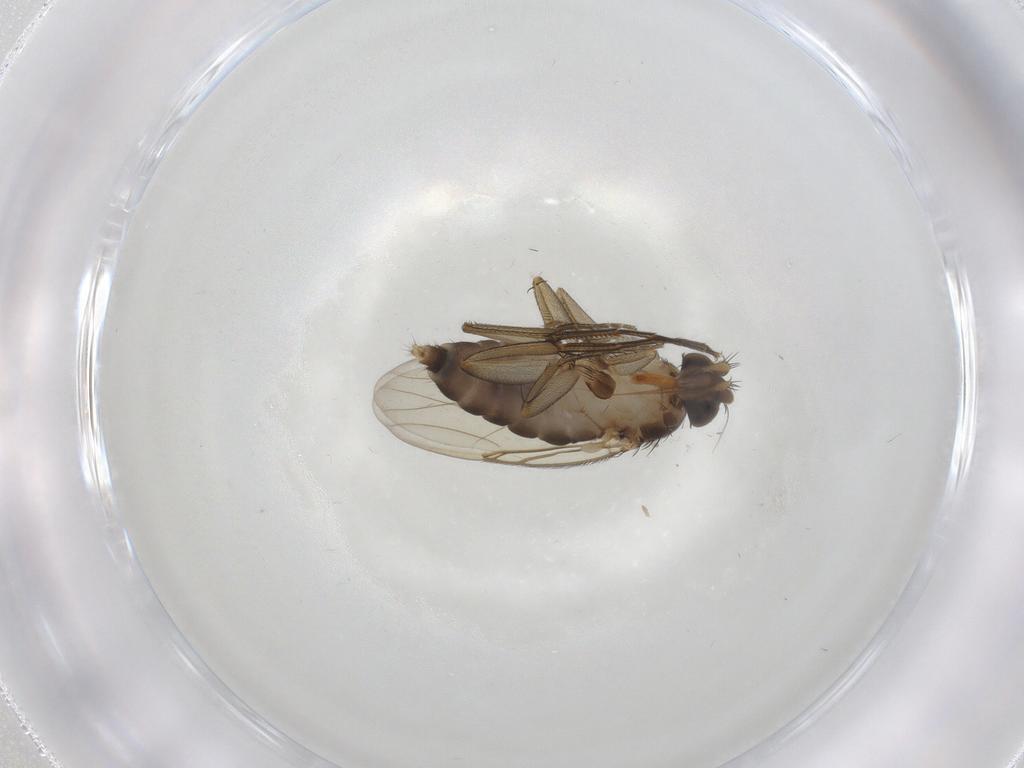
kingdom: Animalia
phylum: Arthropoda
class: Insecta
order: Diptera
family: Phoridae
